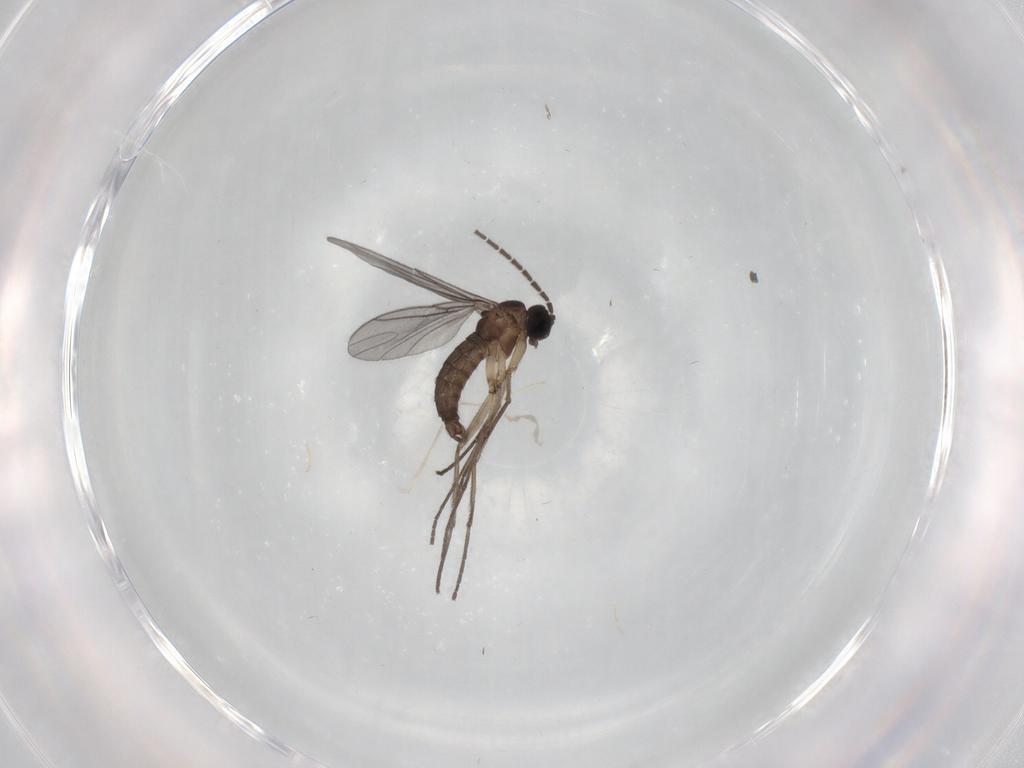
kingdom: Animalia
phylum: Arthropoda
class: Insecta
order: Diptera
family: Sciaridae
